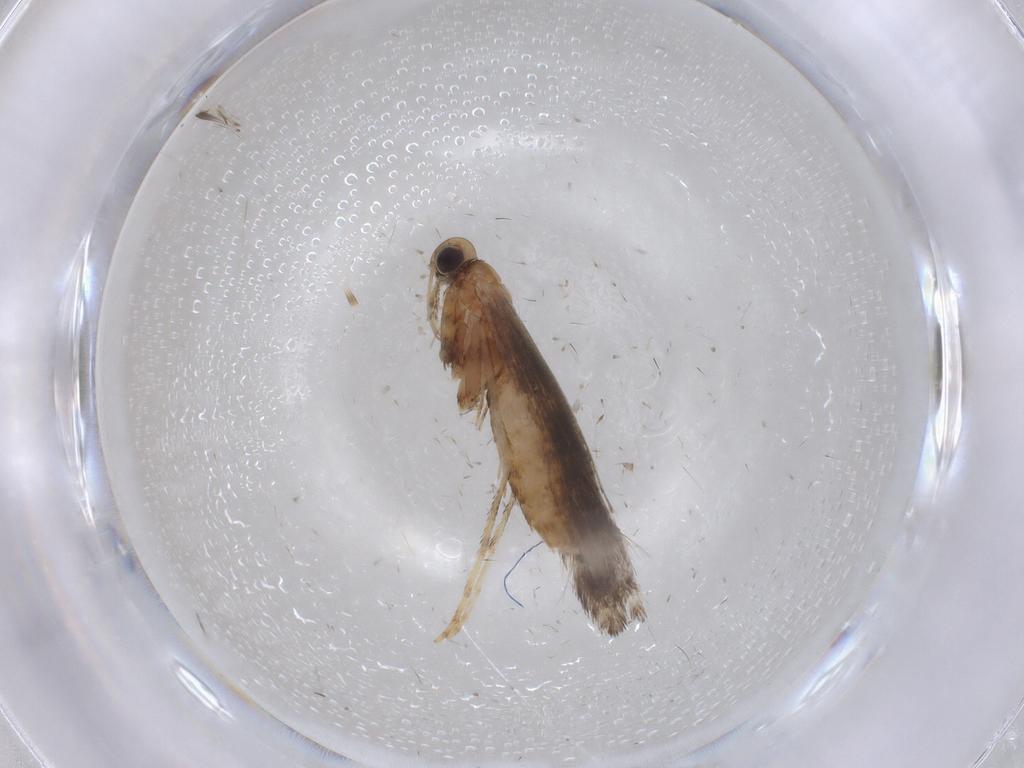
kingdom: Animalia
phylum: Arthropoda
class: Insecta
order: Lepidoptera
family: Gracillariidae
